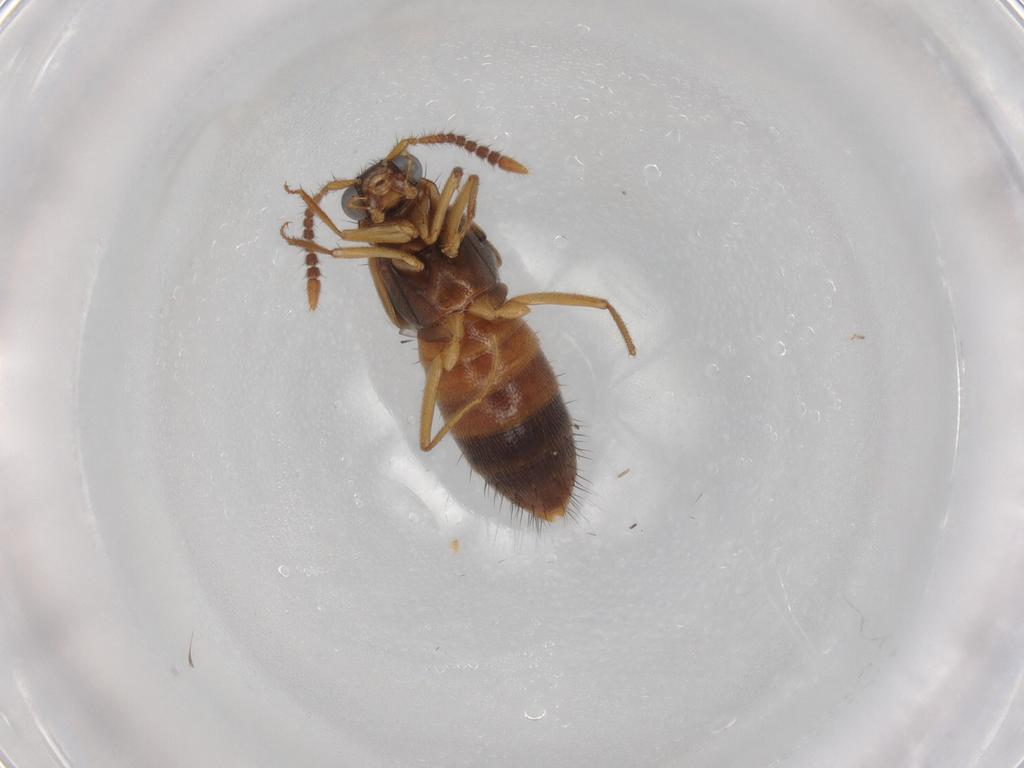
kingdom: Animalia
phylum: Arthropoda
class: Insecta
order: Coleoptera
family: Staphylinidae
